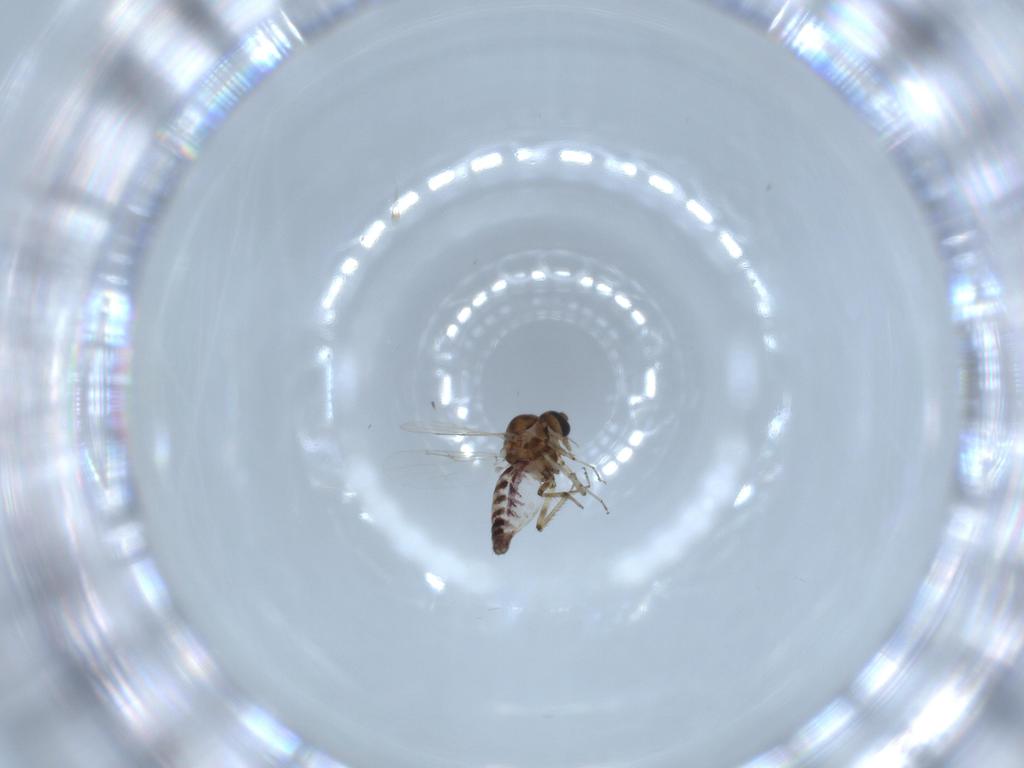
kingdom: Animalia
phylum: Arthropoda
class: Insecta
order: Diptera
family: Ceratopogonidae
